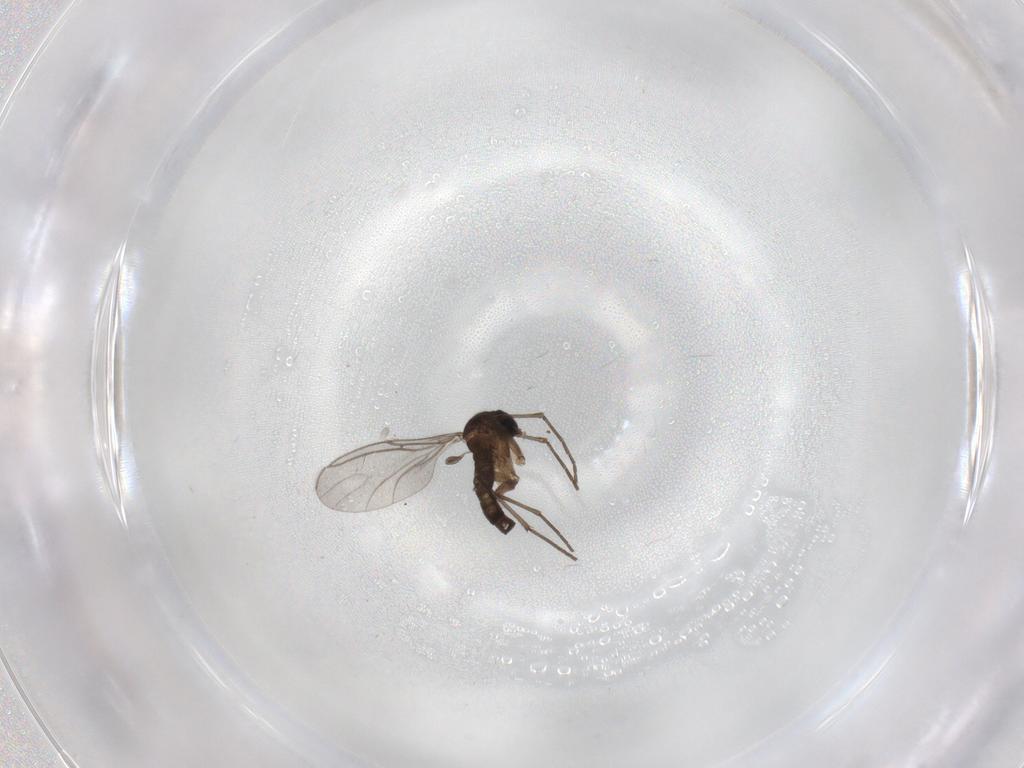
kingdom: Animalia
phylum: Arthropoda
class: Insecta
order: Diptera
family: Sciaridae
